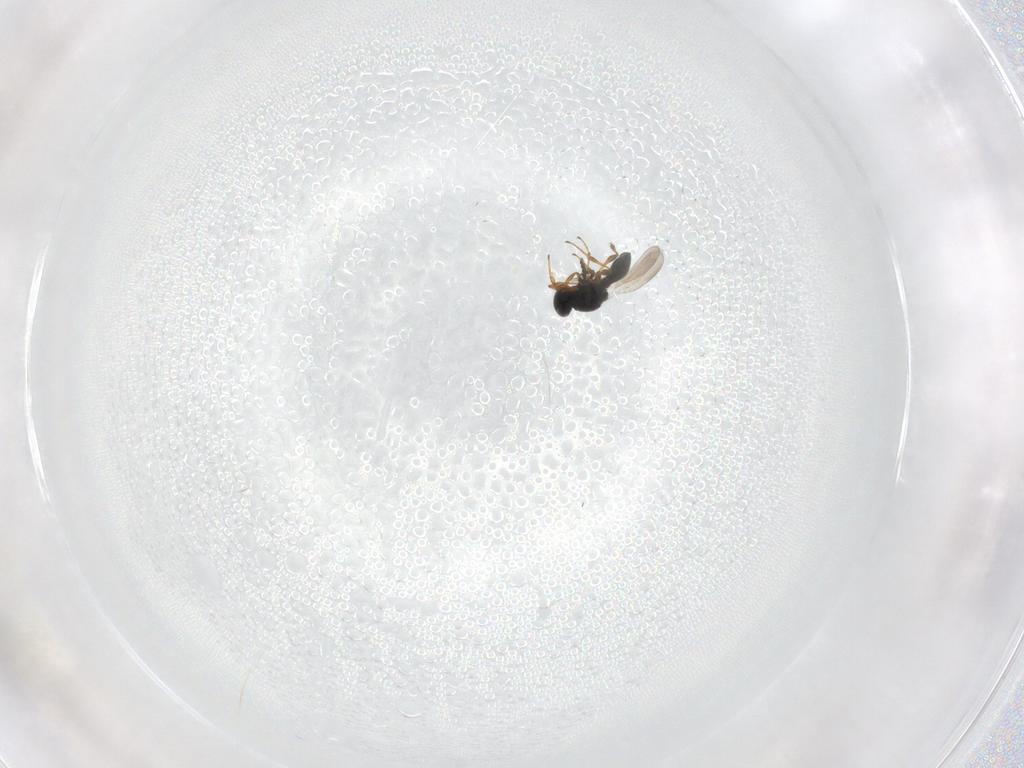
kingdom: Animalia
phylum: Arthropoda
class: Insecta
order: Hymenoptera
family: Platygastridae
